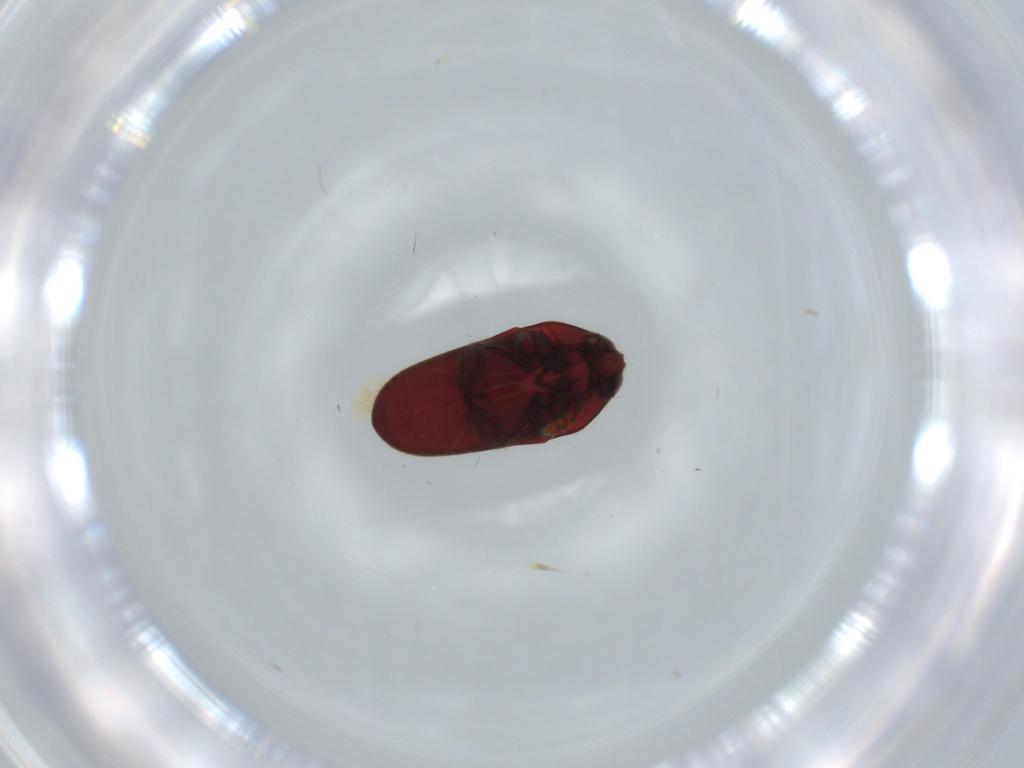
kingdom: Animalia
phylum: Arthropoda
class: Insecta
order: Coleoptera
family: Throscidae
